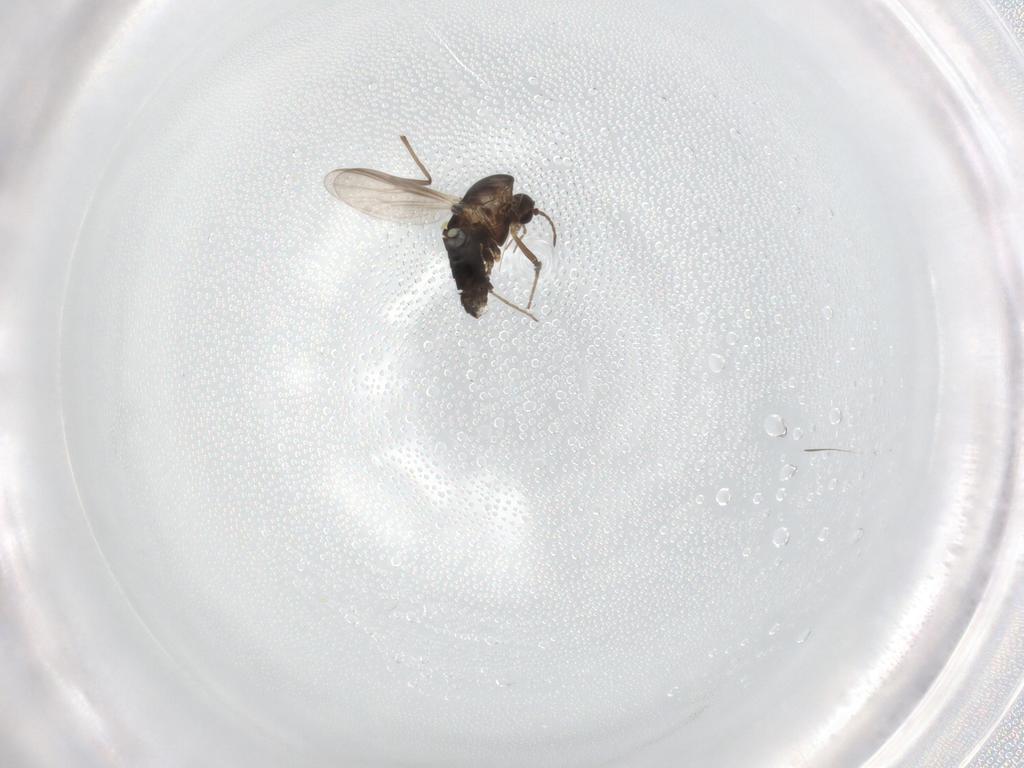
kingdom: Animalia
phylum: Arthropoda
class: Insecta
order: Diptera
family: Chironomidae
